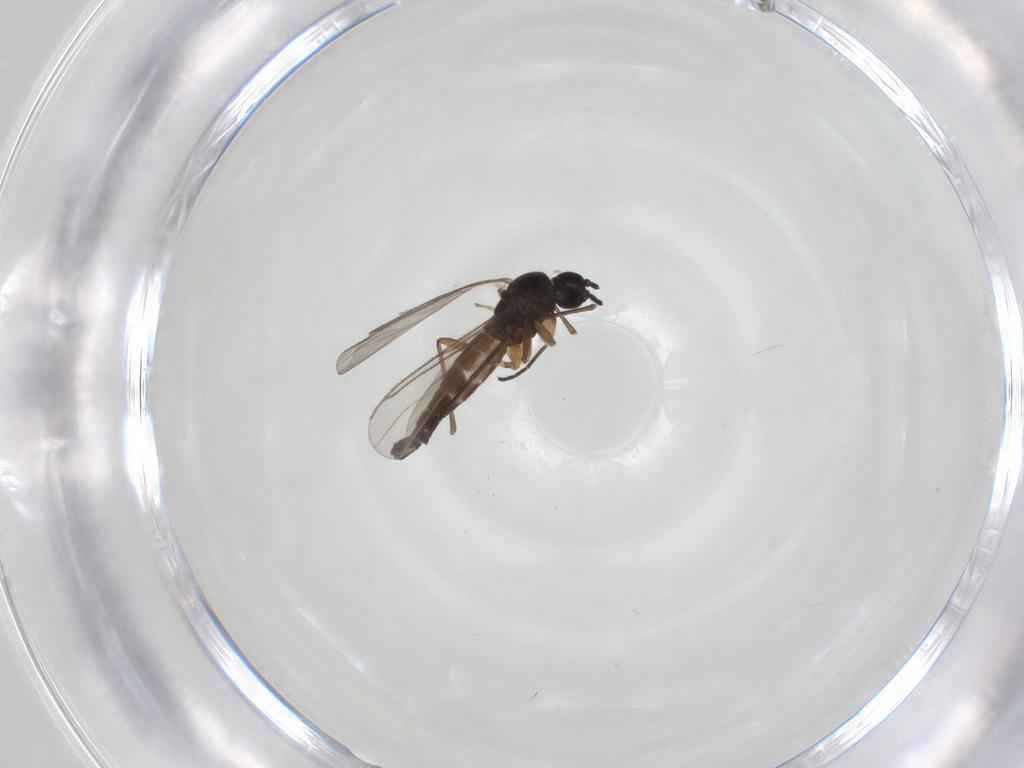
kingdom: Animalia
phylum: Arthropoda
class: Insecta
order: Diptera
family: Sciaridae
